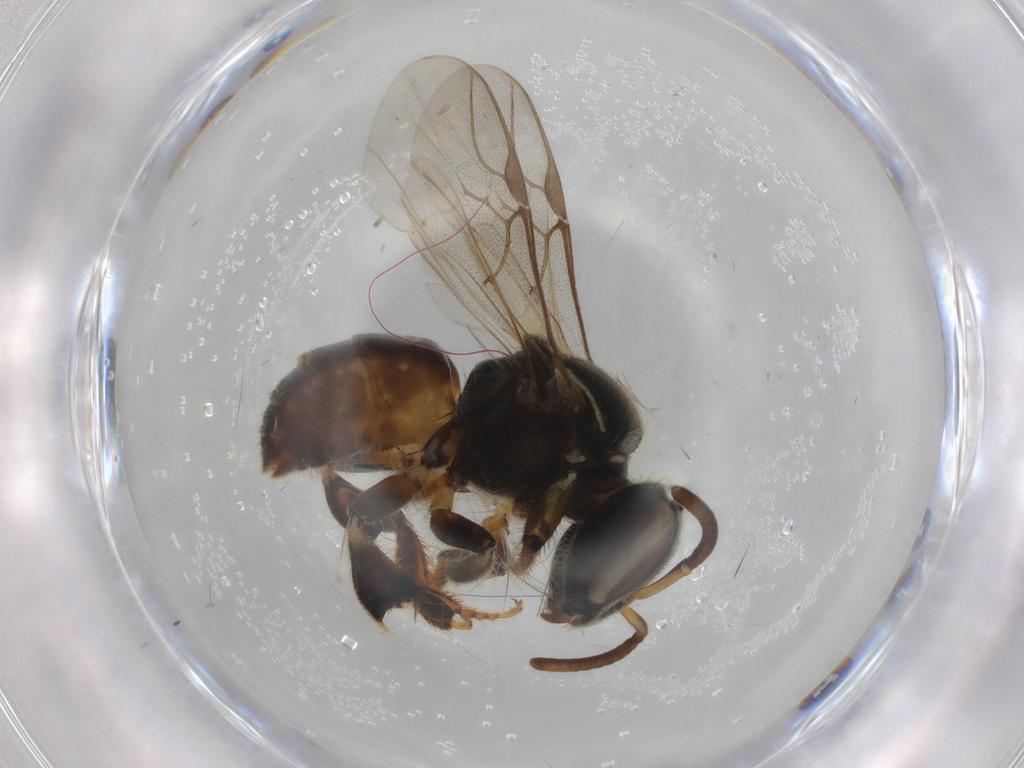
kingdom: Animalia
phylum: Arthropoda
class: Insecta
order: Hymenoptera
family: Apidae
